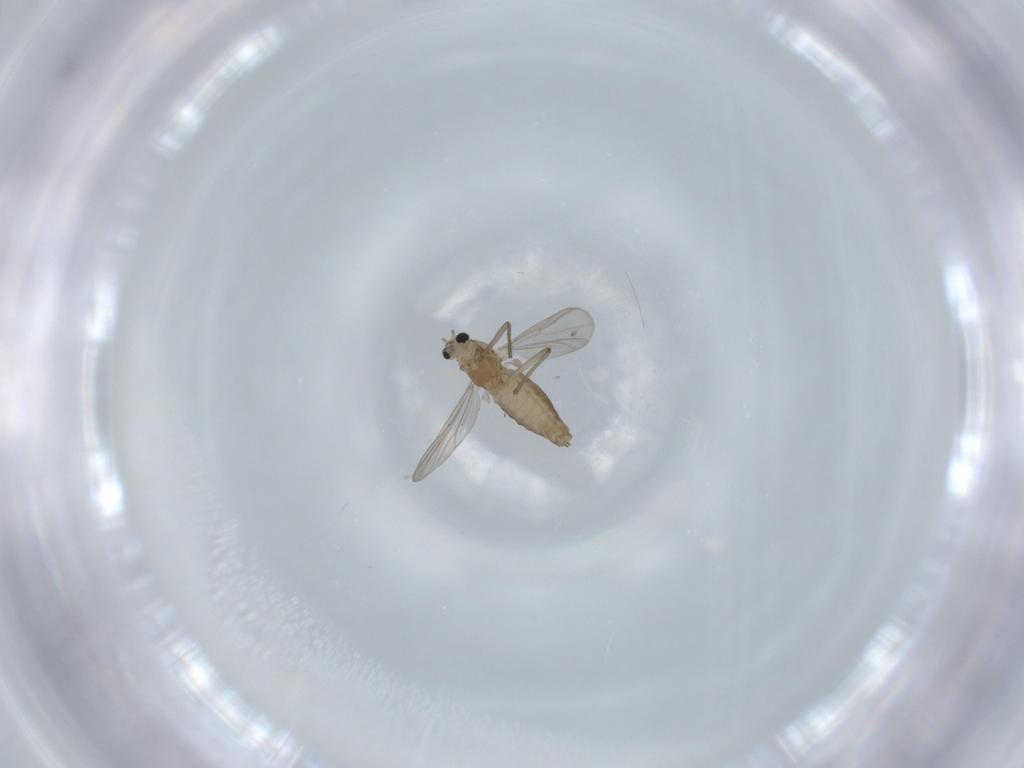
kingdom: Animalia
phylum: Arthropoda
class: Insecta
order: Diptera
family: Chironomidae
